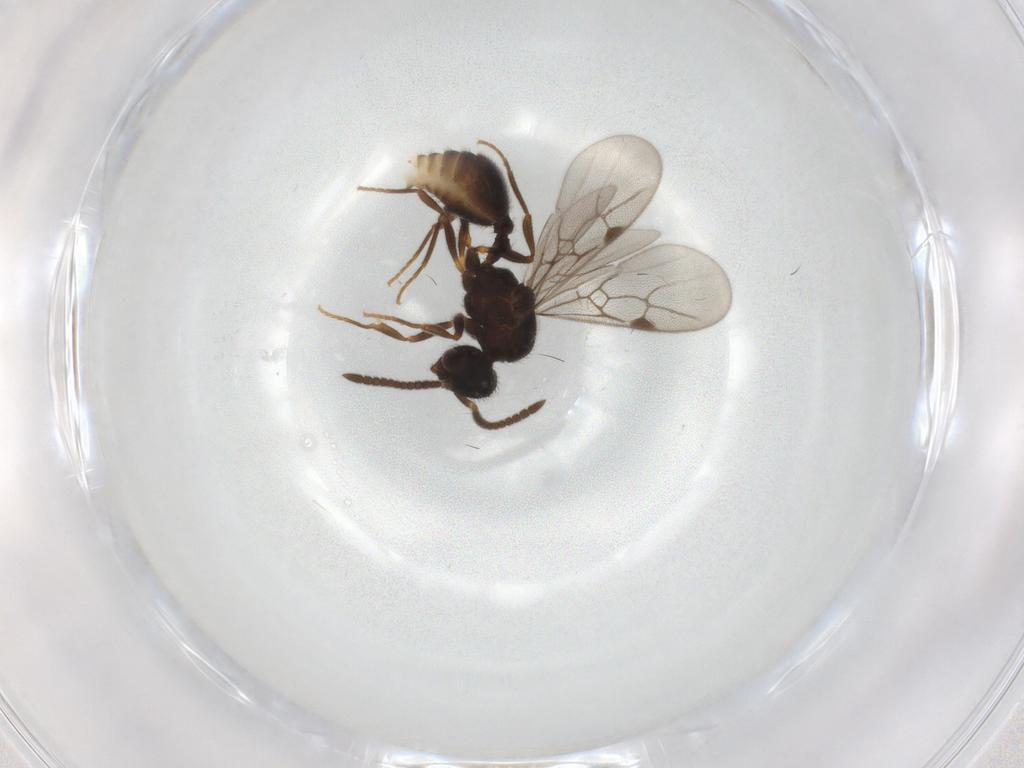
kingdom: Animalia
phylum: Arthropoda
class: Insecta
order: Hymenoptera
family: Formicidae
